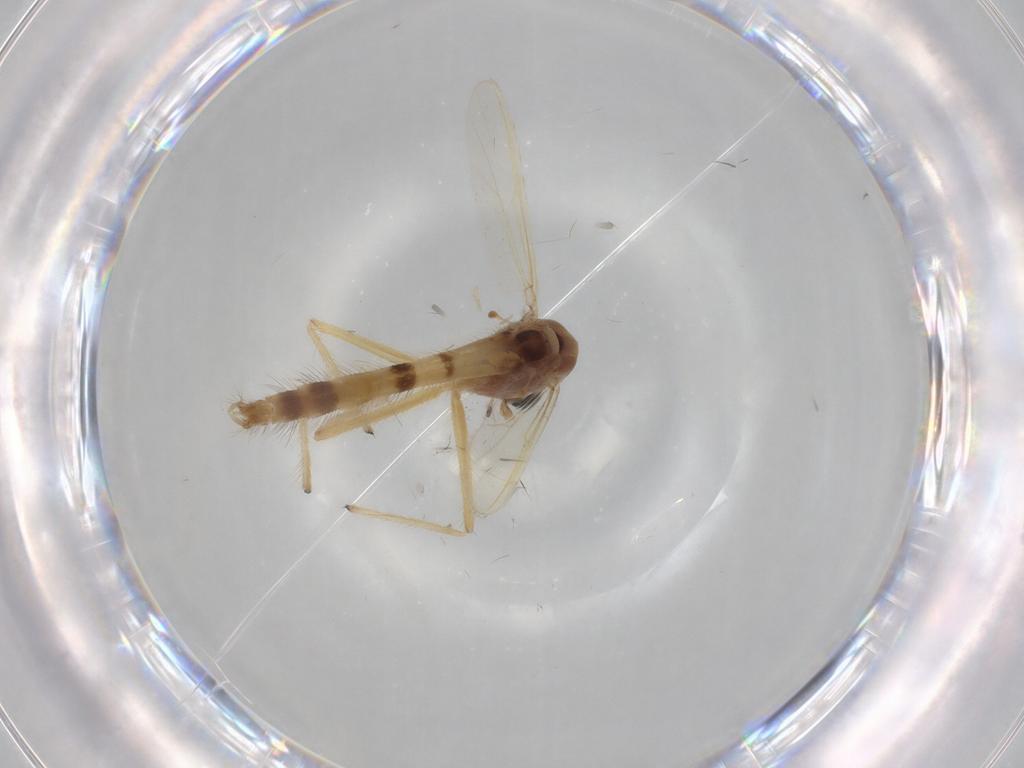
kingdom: Animalia
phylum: Arthropoda
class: Insecta
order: Diptera
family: Chironomidae
